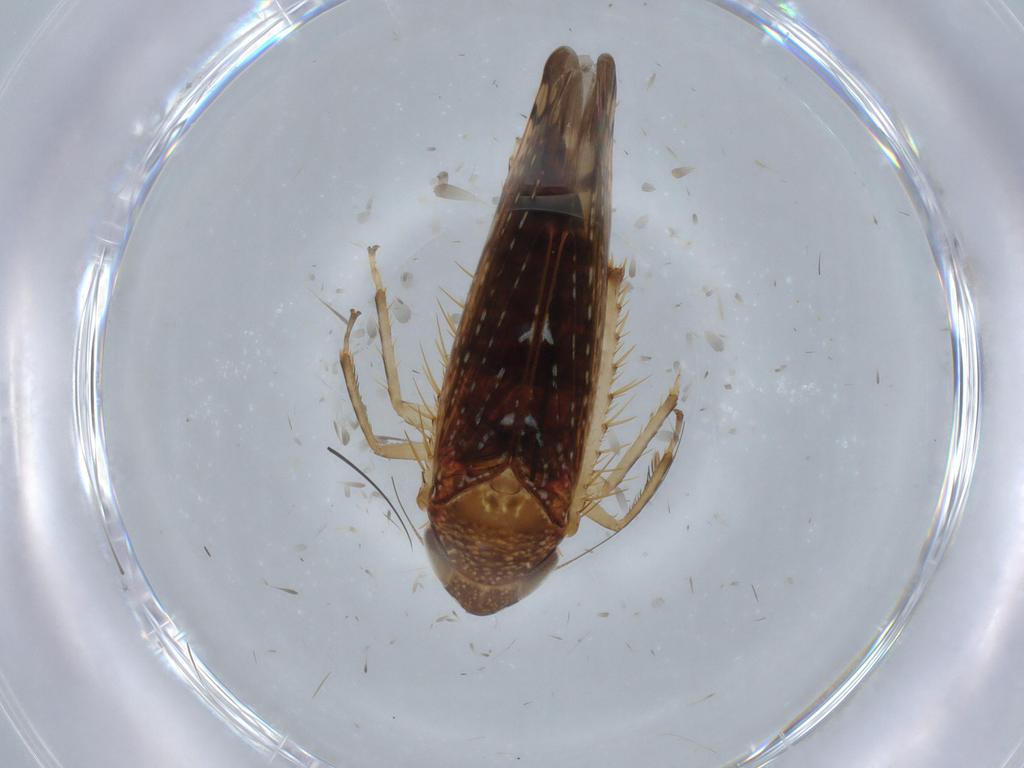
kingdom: Animalia
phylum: Arthropoda
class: Insecta
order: Hemiptera
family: Cicadellidae
